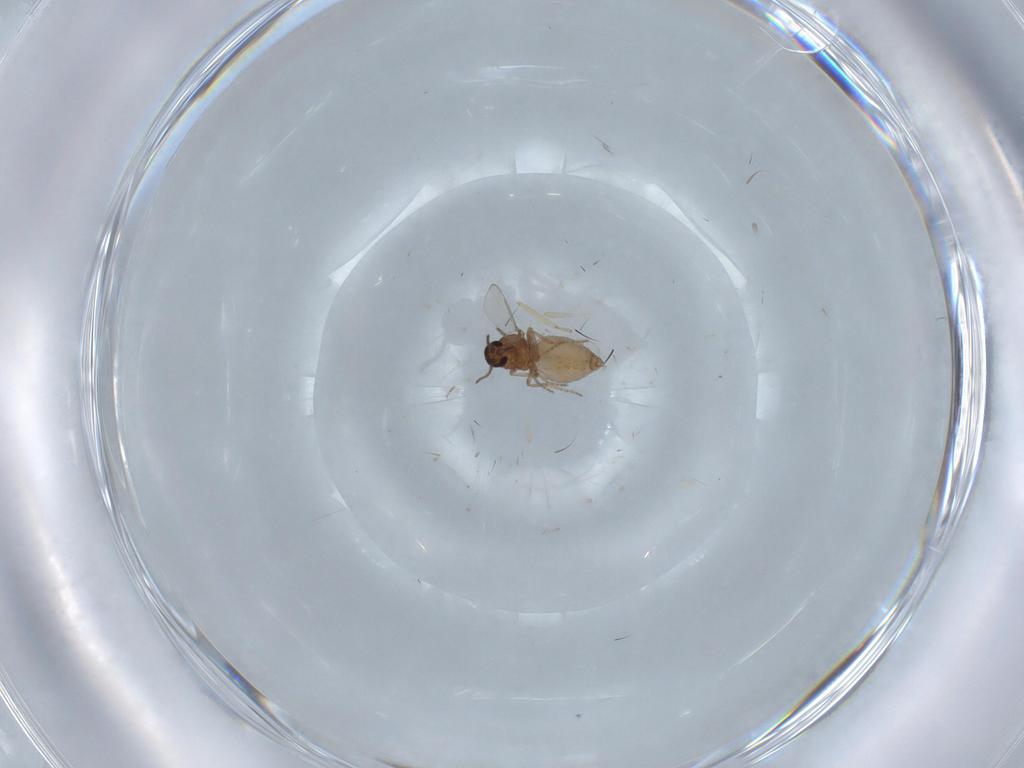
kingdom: Animalia
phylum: Arthropoda
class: Insecta
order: Diptera
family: Ceratopogonidae
